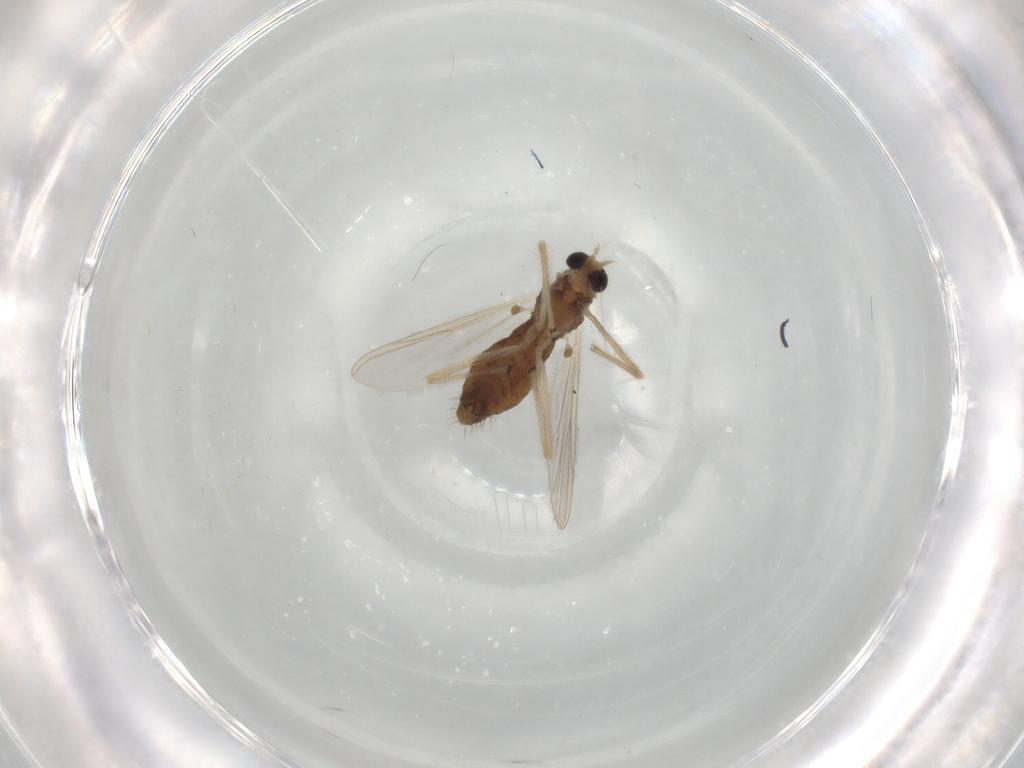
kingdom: Animalia
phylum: Arthropoda
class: Insecta
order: Diptera
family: Chironomidae
